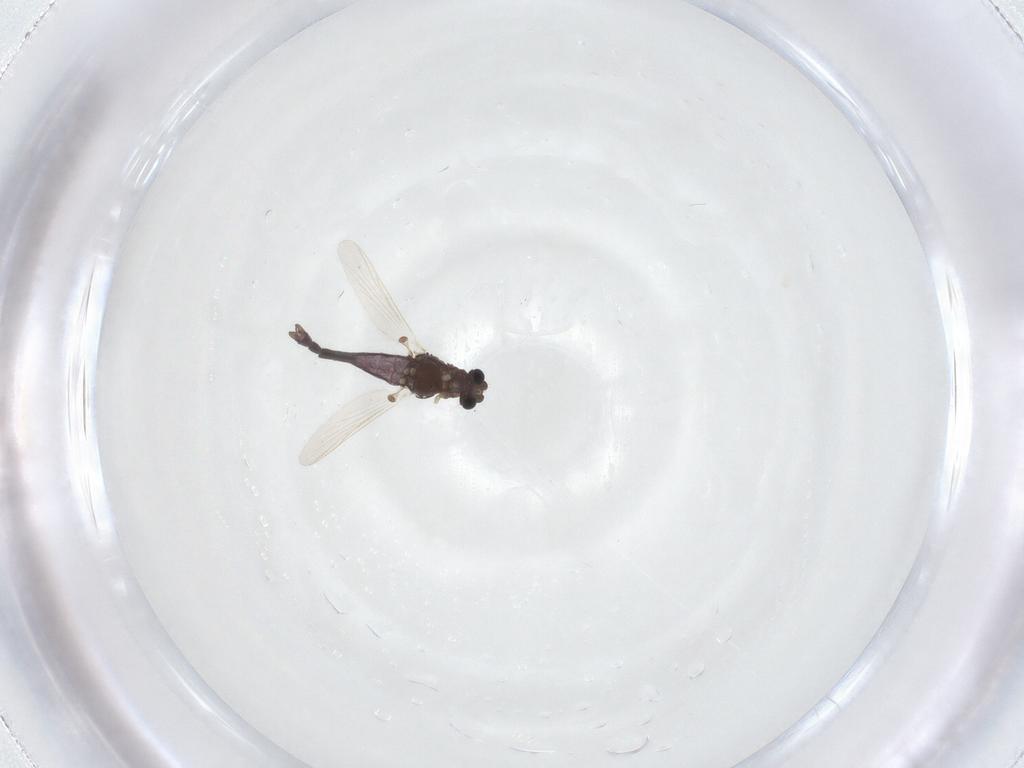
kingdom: Animalia
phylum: Arthropoda
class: Insecta
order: Diptera
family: Chironomidae
